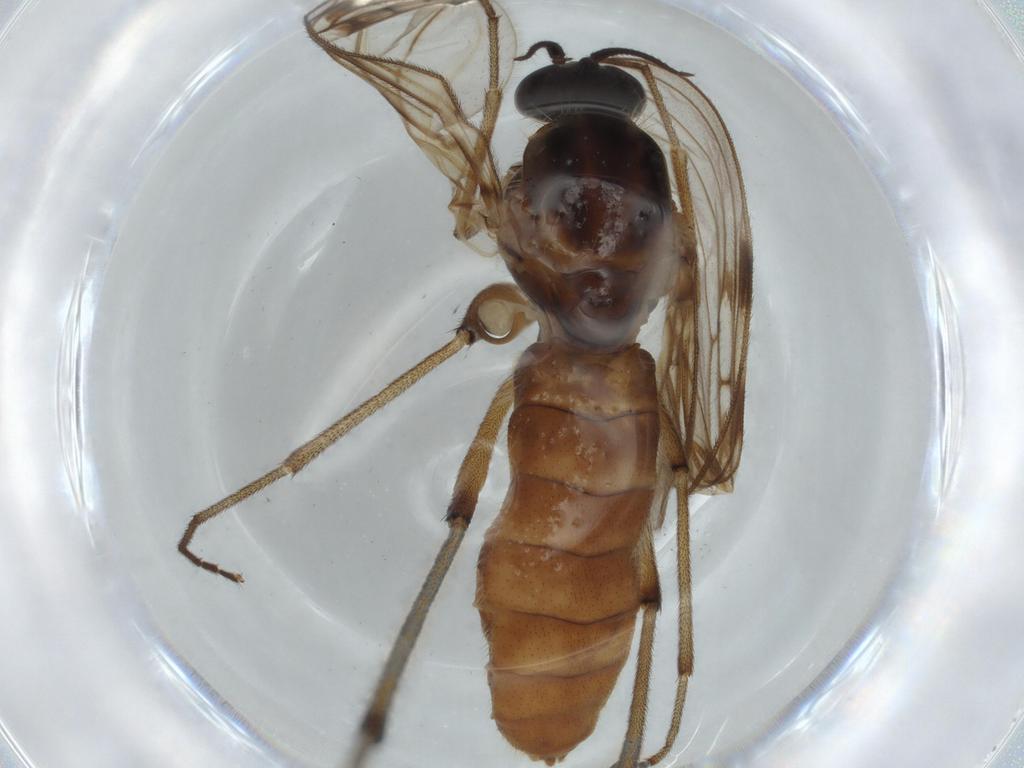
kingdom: Animalia
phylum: Arthropoda
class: Insecta
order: Diptera
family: Anisopodidae
